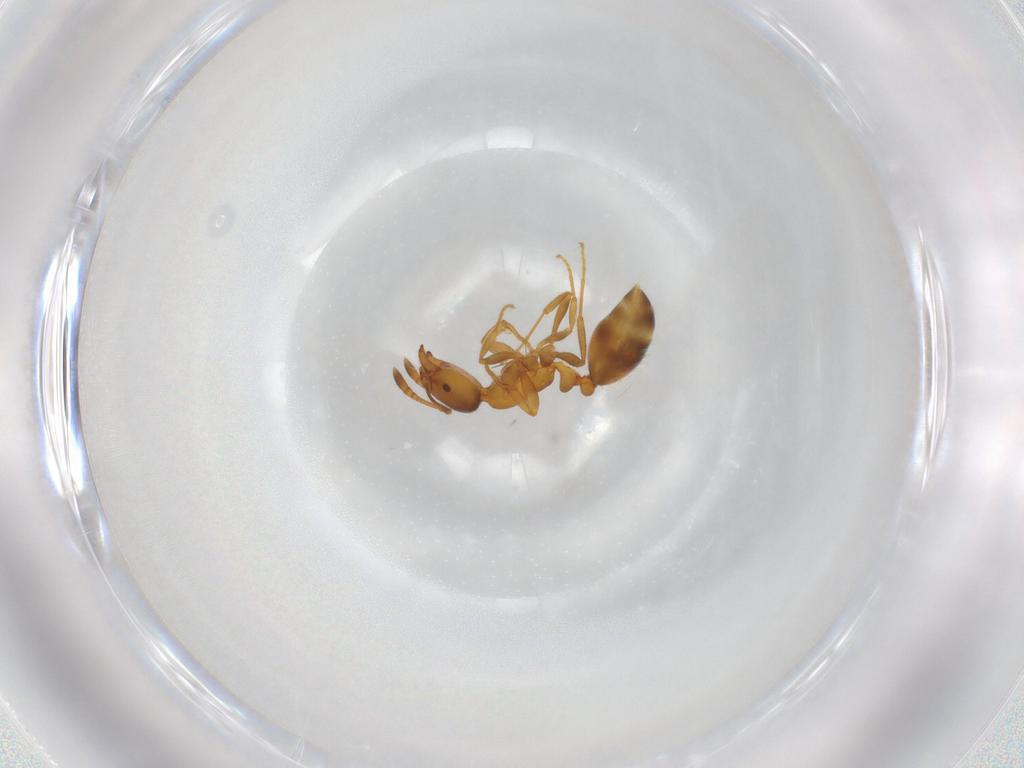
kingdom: Animalia
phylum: Arthropoda
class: Insecta
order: Hymenoptera
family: Formicidae
